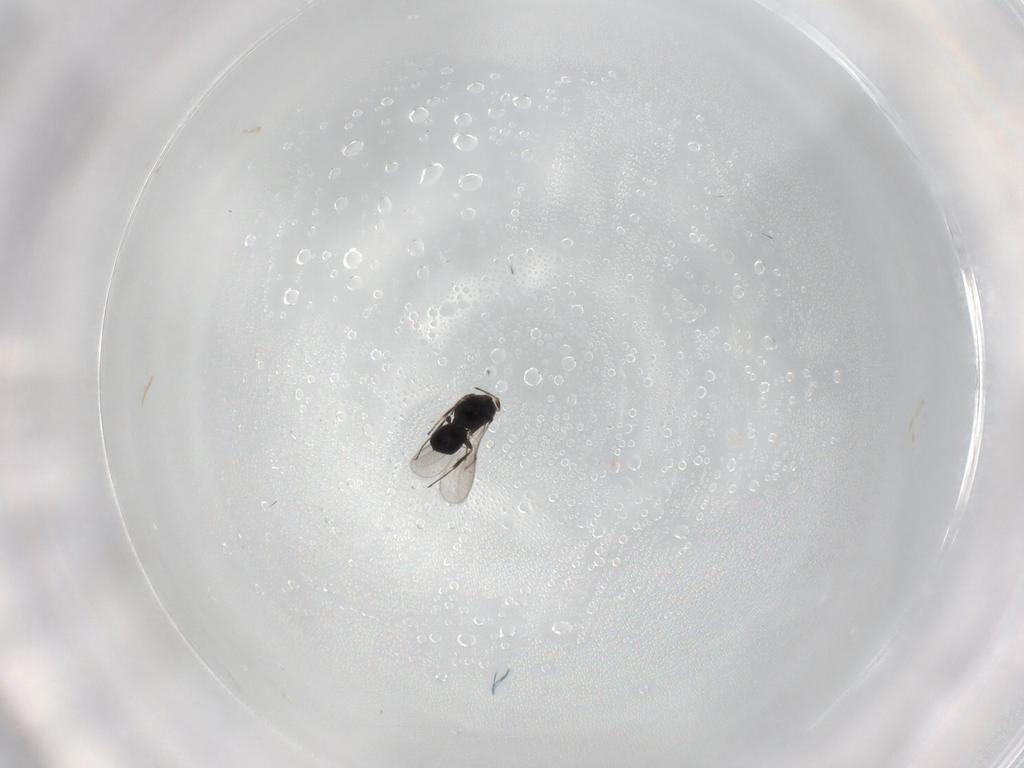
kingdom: Animalia
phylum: Arthropoda
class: Insecta
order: Hymenoptera
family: Scelionidae
